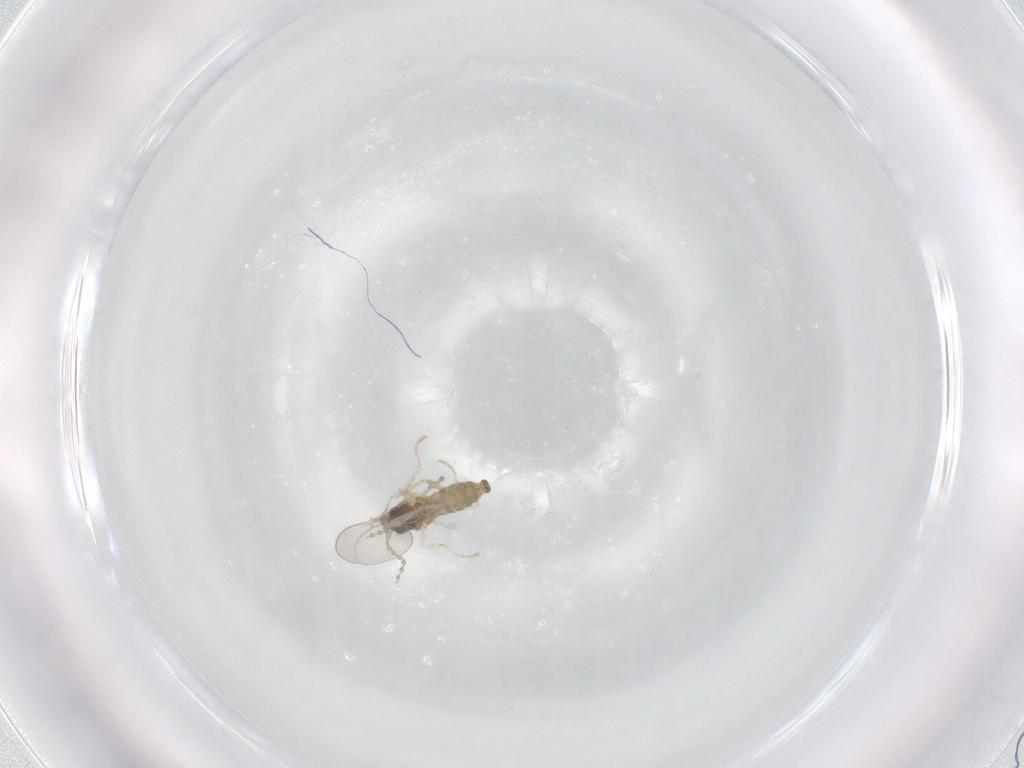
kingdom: Animalia
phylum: Arthropoda
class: Insecta
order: Diptera
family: Cecidomyiidae
